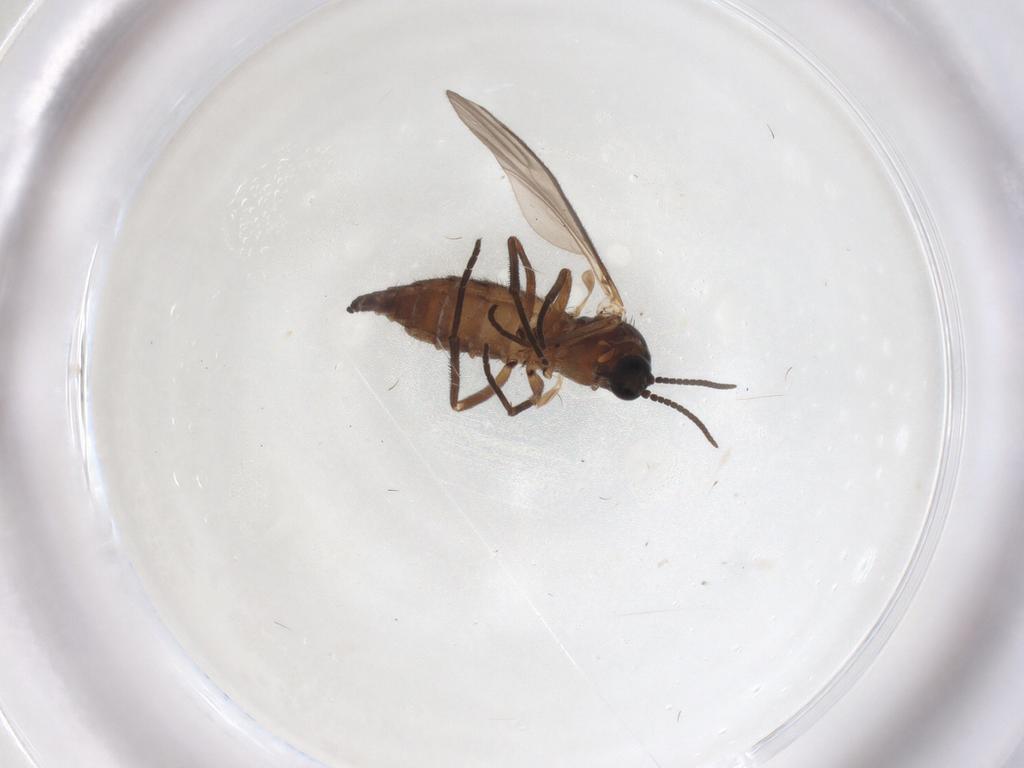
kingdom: Animalia
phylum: Arthropoda
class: Insecta
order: Diptera
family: Sciaridae
